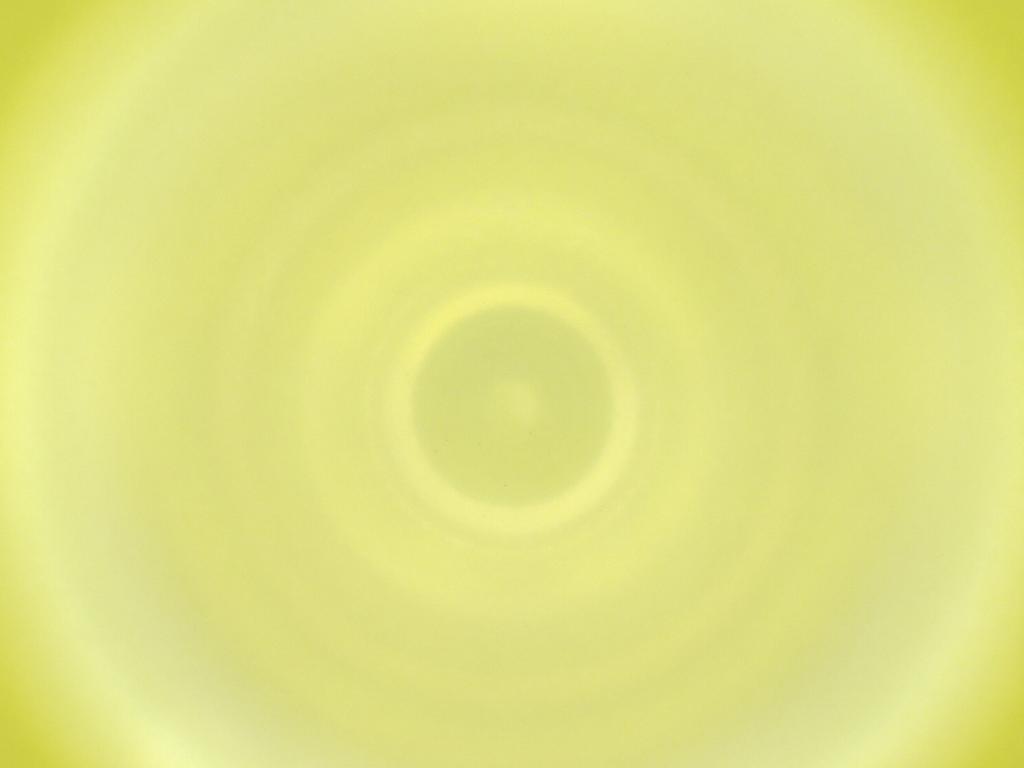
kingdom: Animalia
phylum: Arthropoda
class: Insecta
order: Diptera
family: Cecidomyiidae
